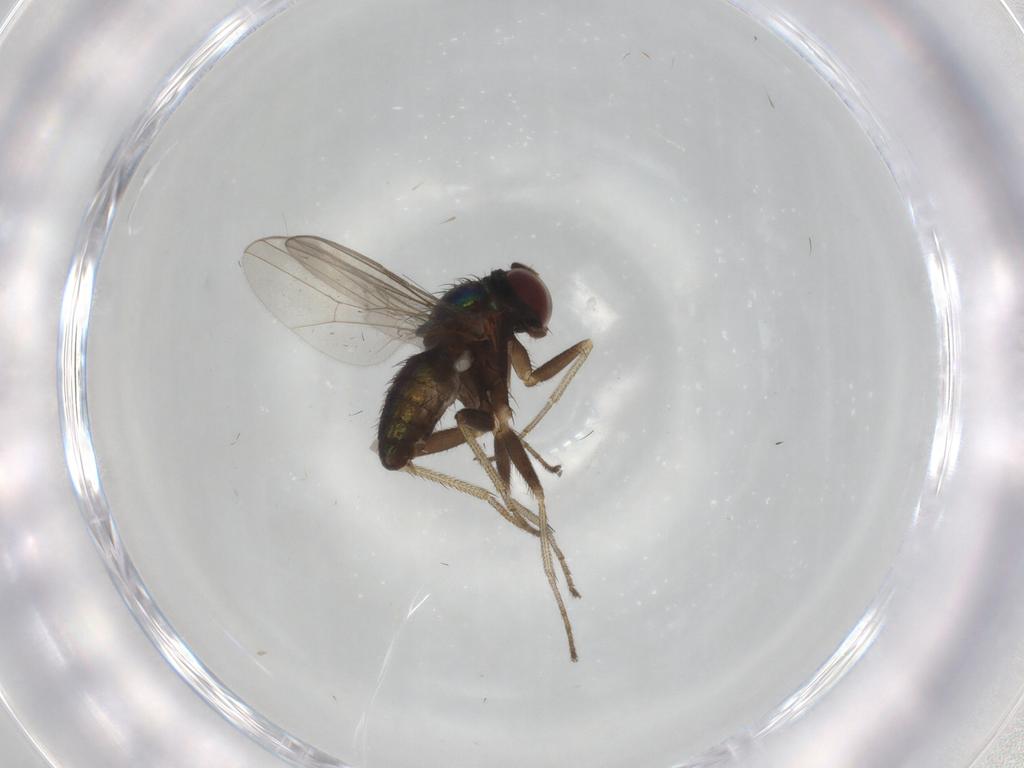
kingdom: Animalia
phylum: Arthropoda
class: Insecta
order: Diptera
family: Dolichopodidae
